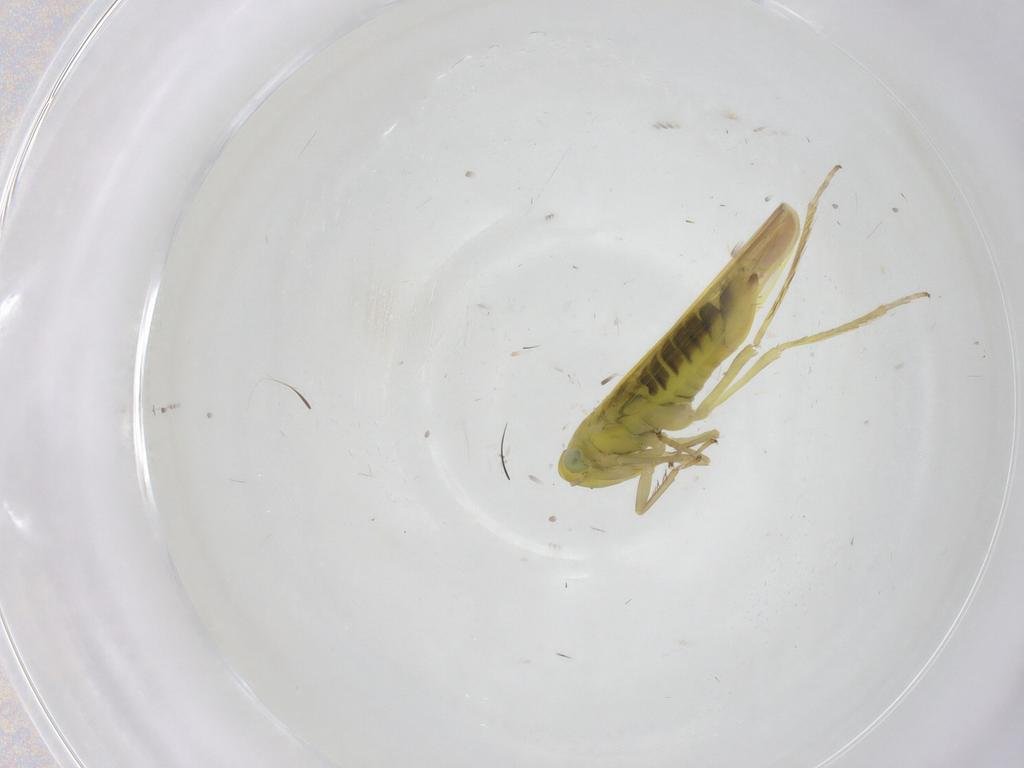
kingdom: Animalia
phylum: Arthropoda
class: Insecta
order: Hemiptera
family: Cicadellidae
